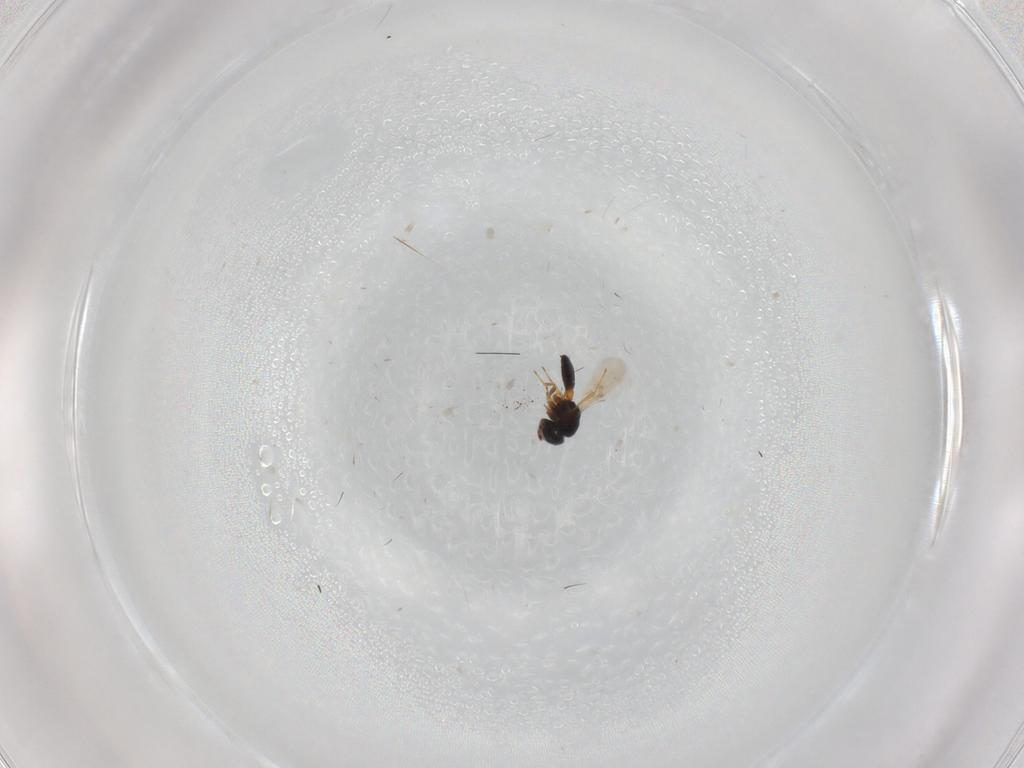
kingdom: Animalia
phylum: Arthropoda
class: Insecta
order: Hymenoptera
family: Scelionidae
